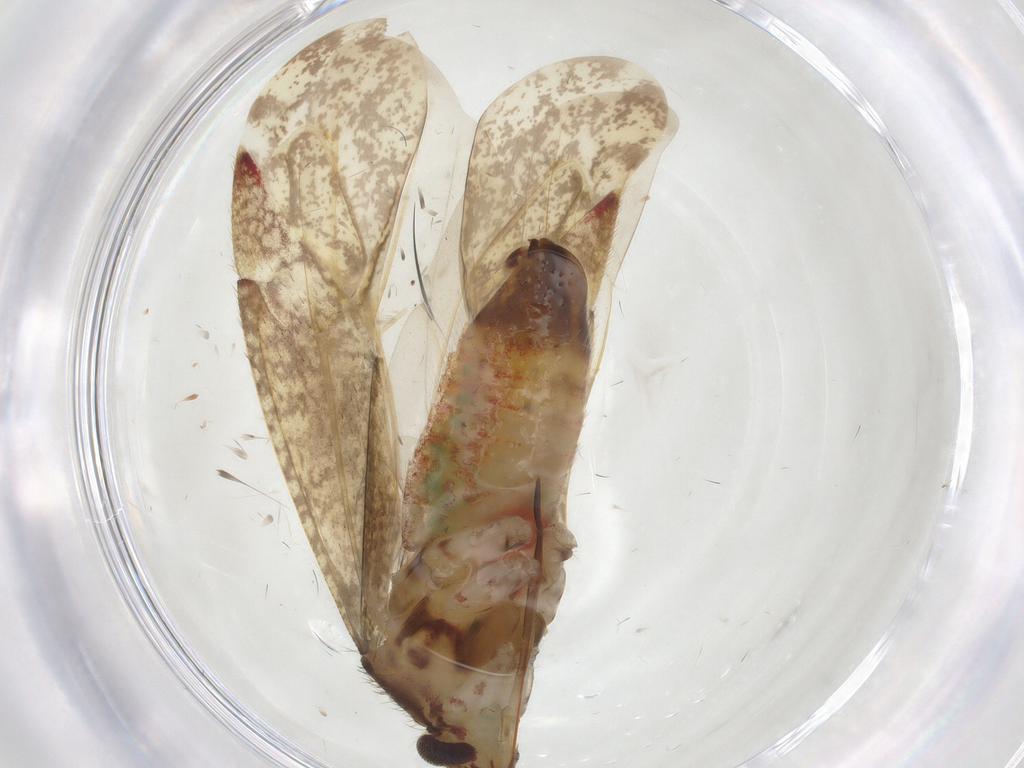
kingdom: Animalia
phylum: Arthropoda
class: Insecta
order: Hemiptera
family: Miridae
